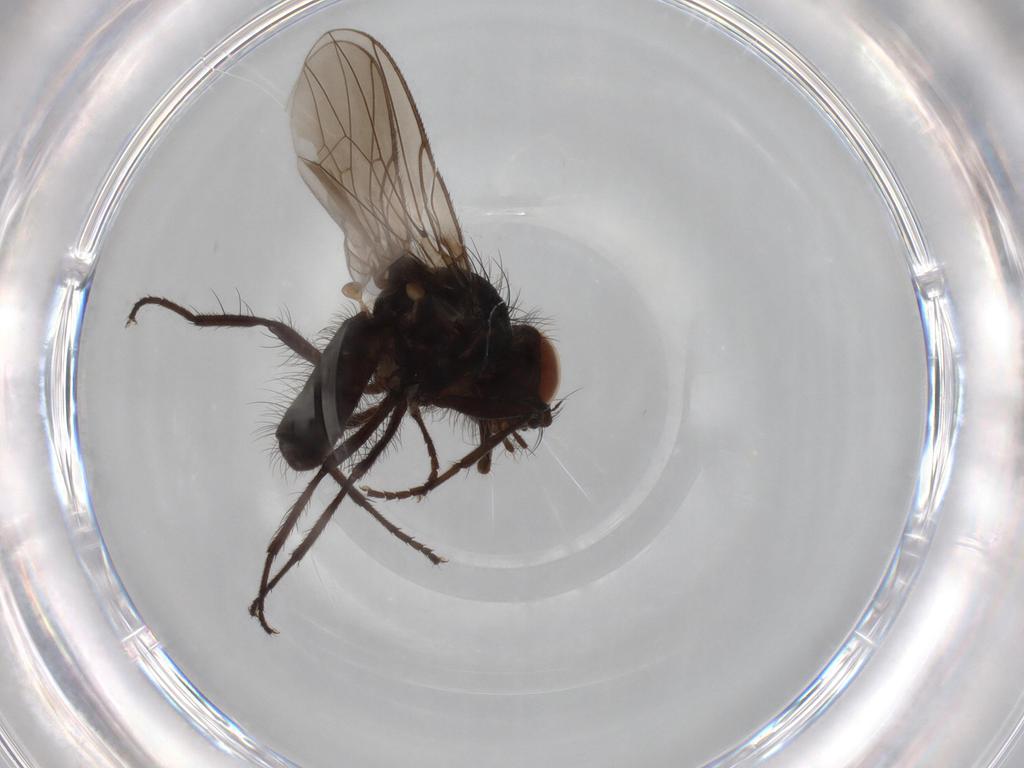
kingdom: Animalia
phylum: Arthropoda
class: Insecta
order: Diptera
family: Anthomyiidae
